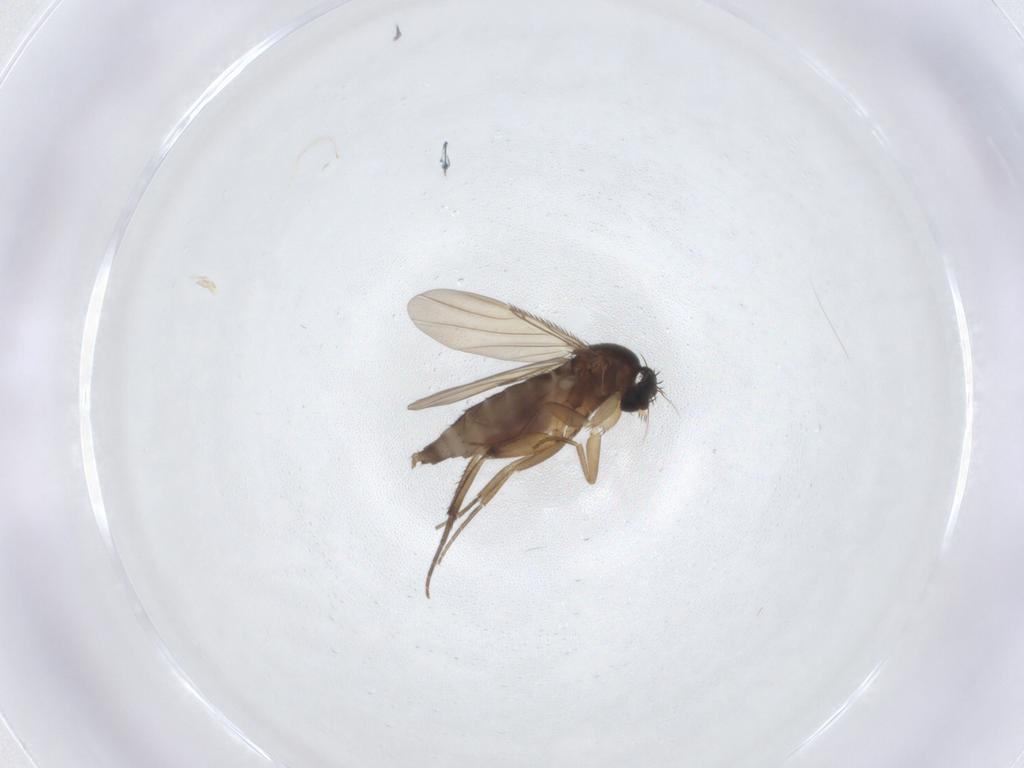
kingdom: Animalia
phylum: Arthropoda
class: Insecta
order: Diptera
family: Phoridae
